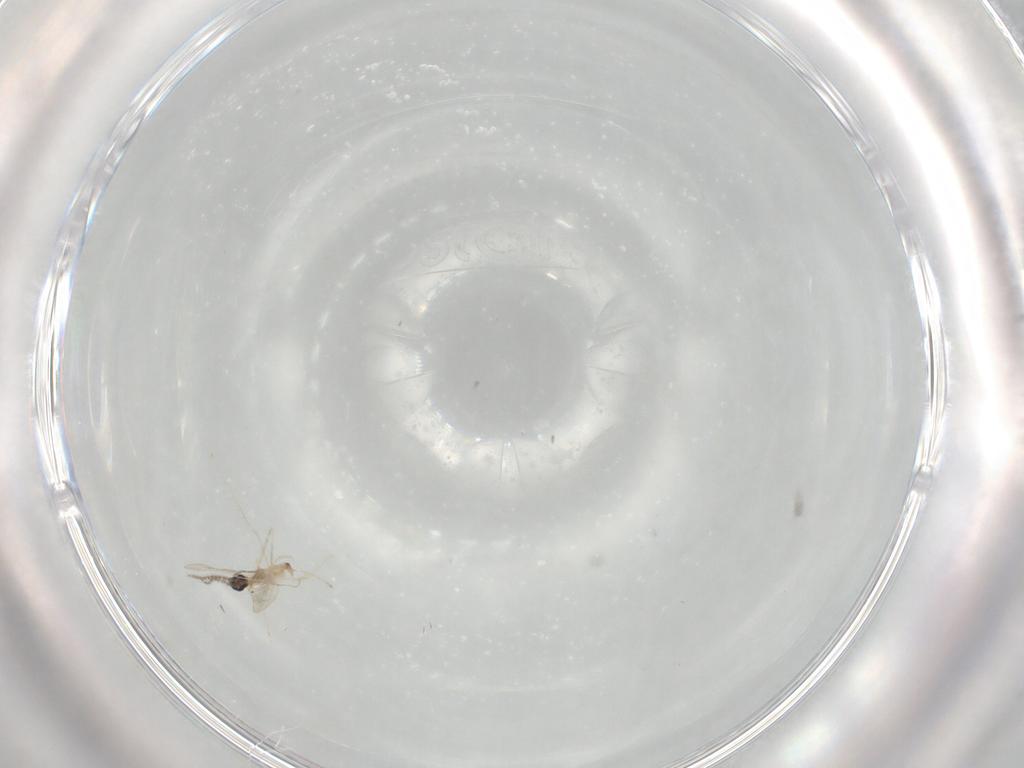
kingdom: Animalia
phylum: Arthropoda
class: Insecta
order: Diptera
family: Cecidomyiidae
